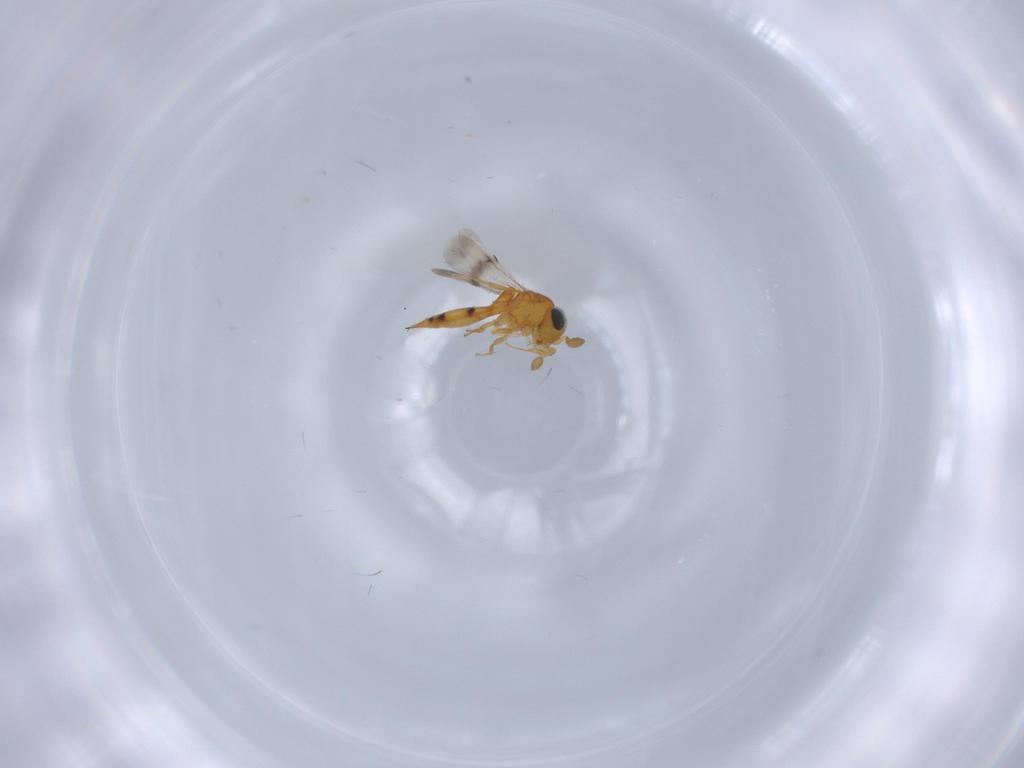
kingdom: Animalia
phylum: Arthropoda
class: Insecta
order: Hymenoptera
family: Scelionidae
